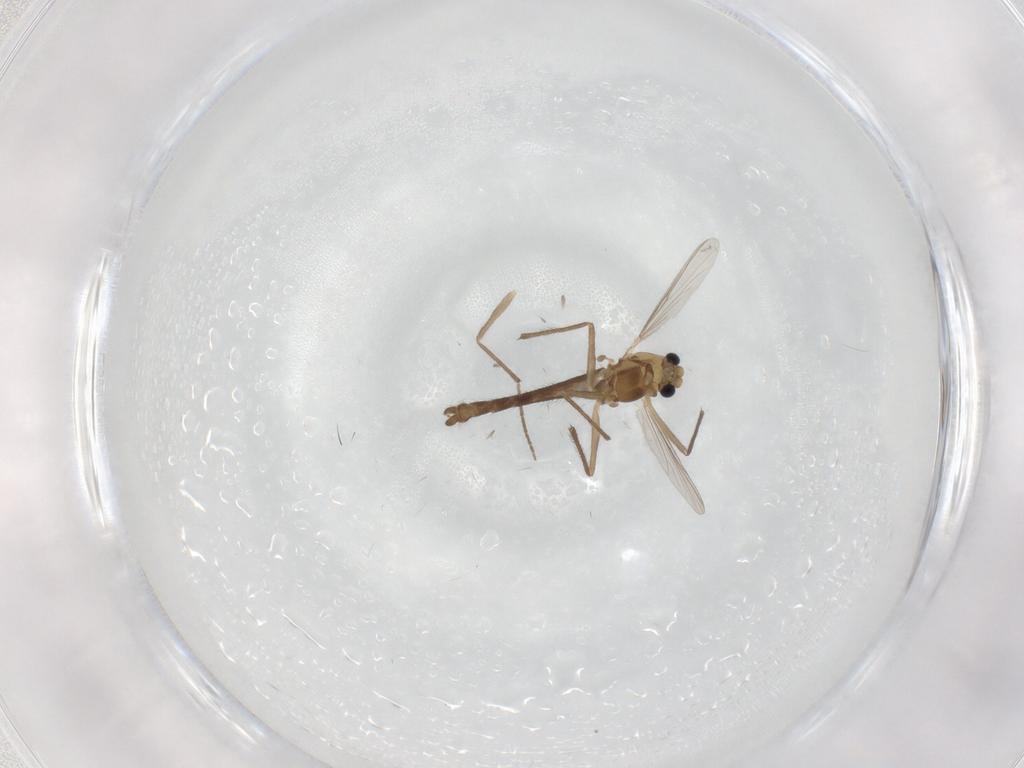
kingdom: Animalia
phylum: Arthropoda
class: Insecta
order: Diptera
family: Chironomidae
